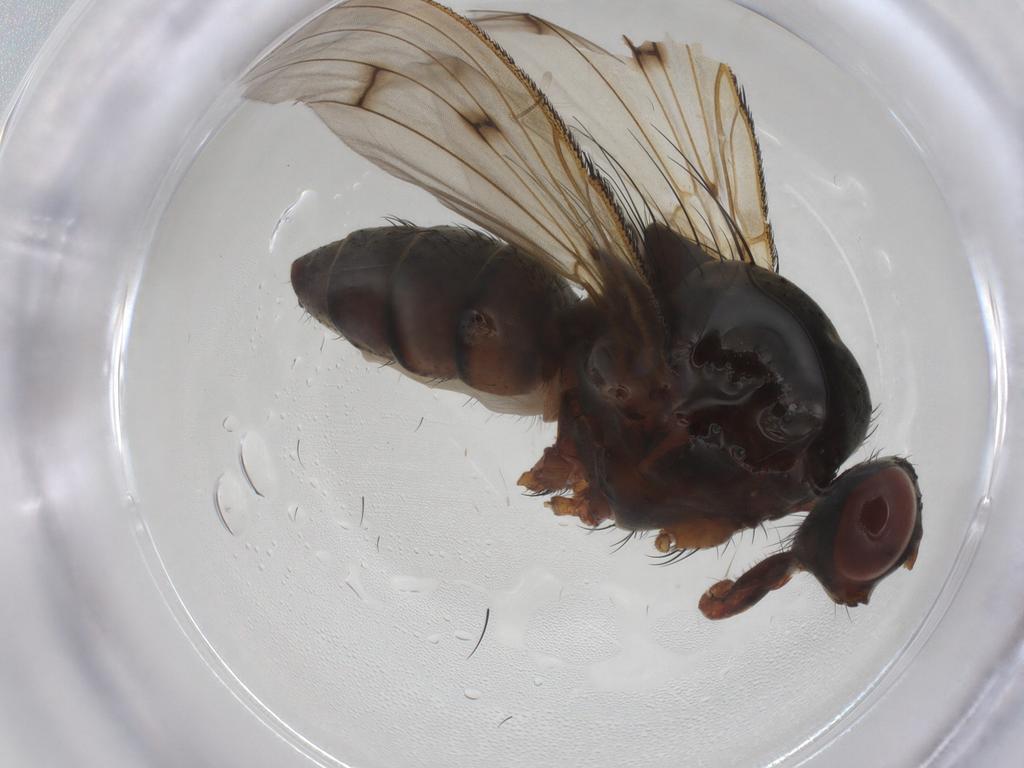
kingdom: Animalia
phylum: Arthropoda
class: Insecta
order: Diptera
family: Anthomyiidae
